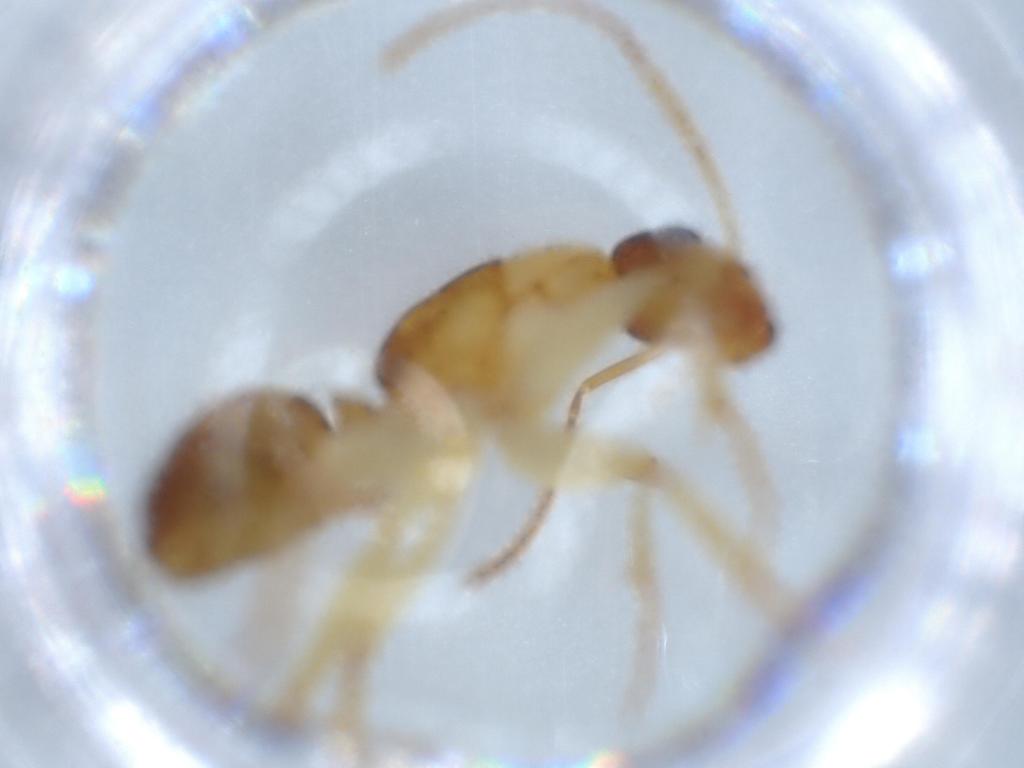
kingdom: Animalia
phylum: Arthropoda
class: Insecta
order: Hymenoptera
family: Formicidae
